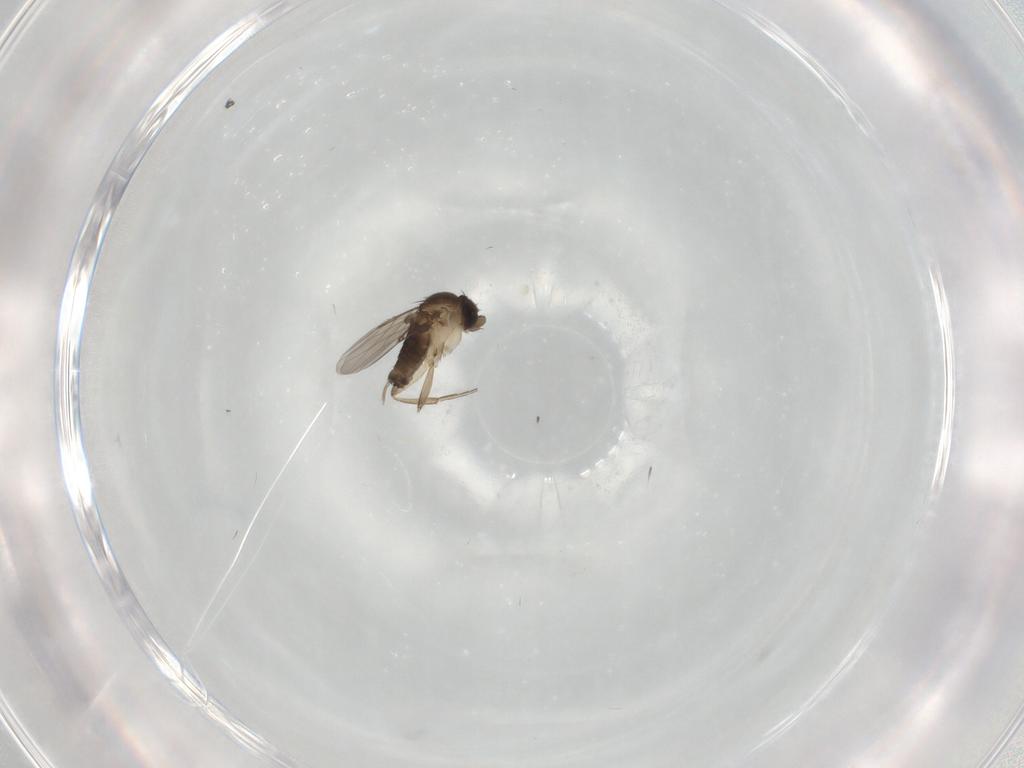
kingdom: Animalia
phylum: Arthropoda
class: Insecta
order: Diptera
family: Phoridae
